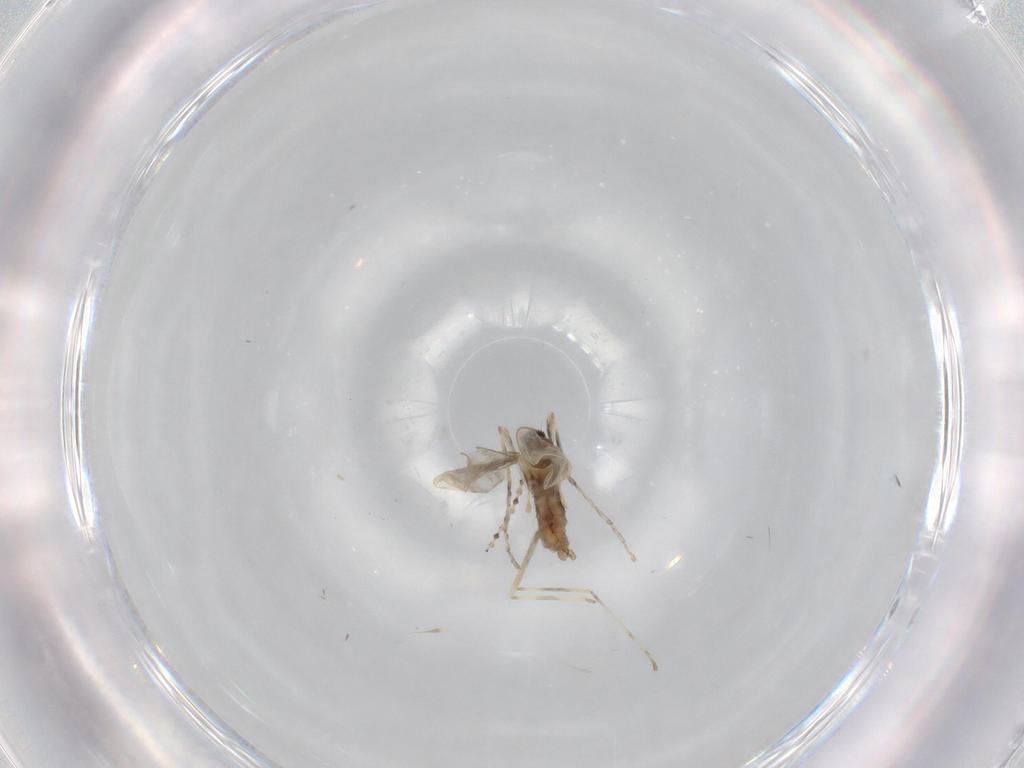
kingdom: Animalia
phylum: Arthropoda
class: Insecta
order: Diptera
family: Cecidomyiidae
